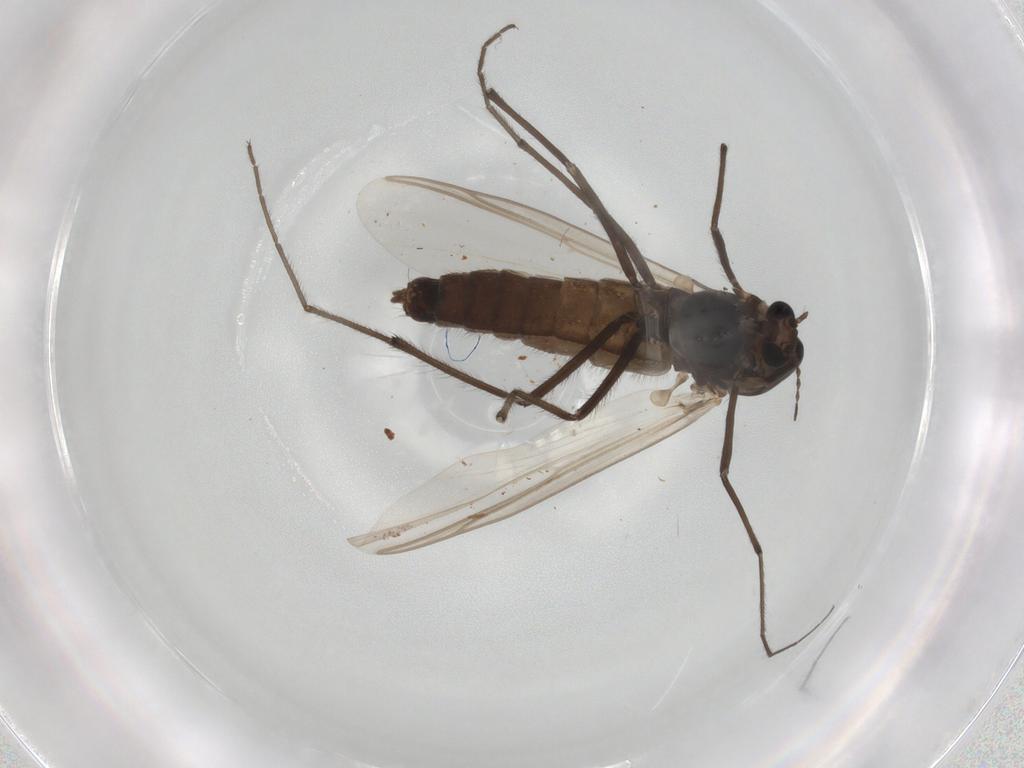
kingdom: Animalia
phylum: Arthropoda
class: Insecta
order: Diptera
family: Chironomidae
